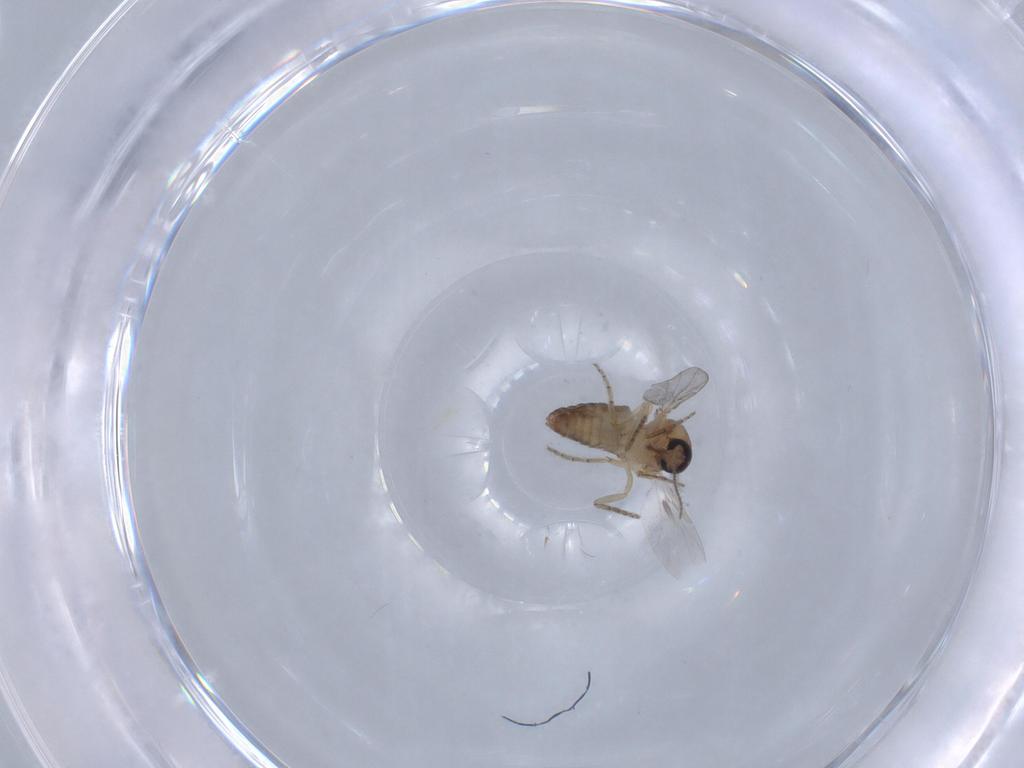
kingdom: Animalia
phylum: Arthropoda
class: Insecta
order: Diptera
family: Ceratopogonidae
